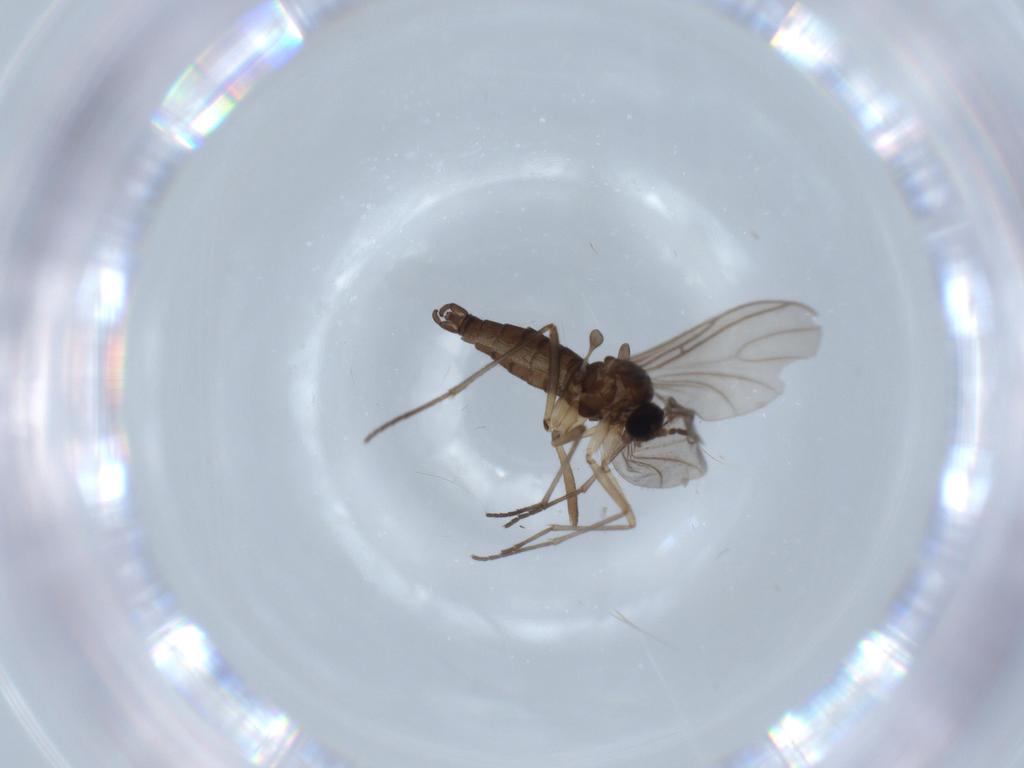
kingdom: Animalia
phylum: Arthropoda
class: Insecta
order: Diptera
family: Sciaridae
